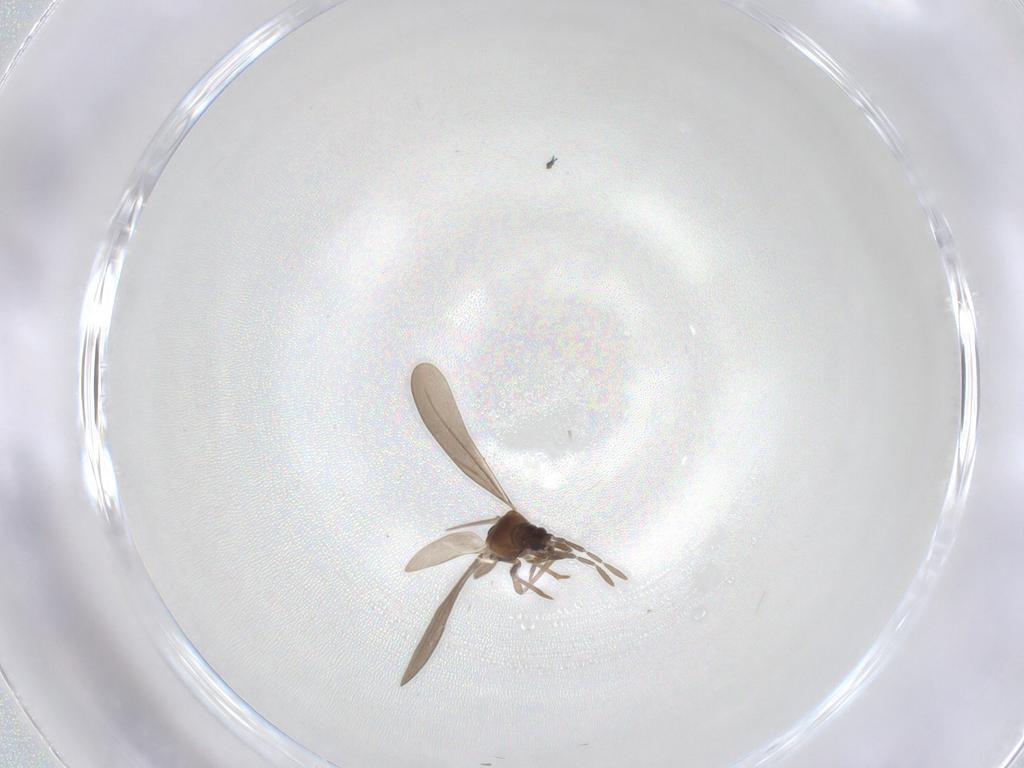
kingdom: Animalia
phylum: Arthropoda
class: Insecta
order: Hemiptera
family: Enicocephalidae
